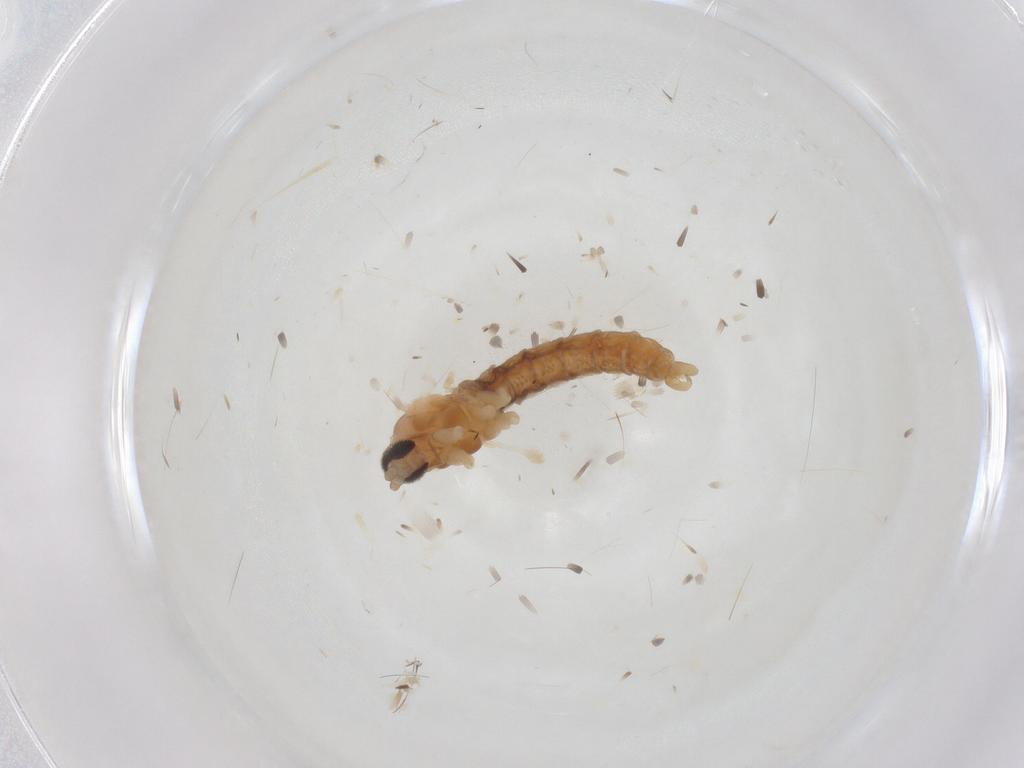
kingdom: Animalia
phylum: Arthropoda
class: Insecta
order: Diptera
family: Cecidomyiidae
